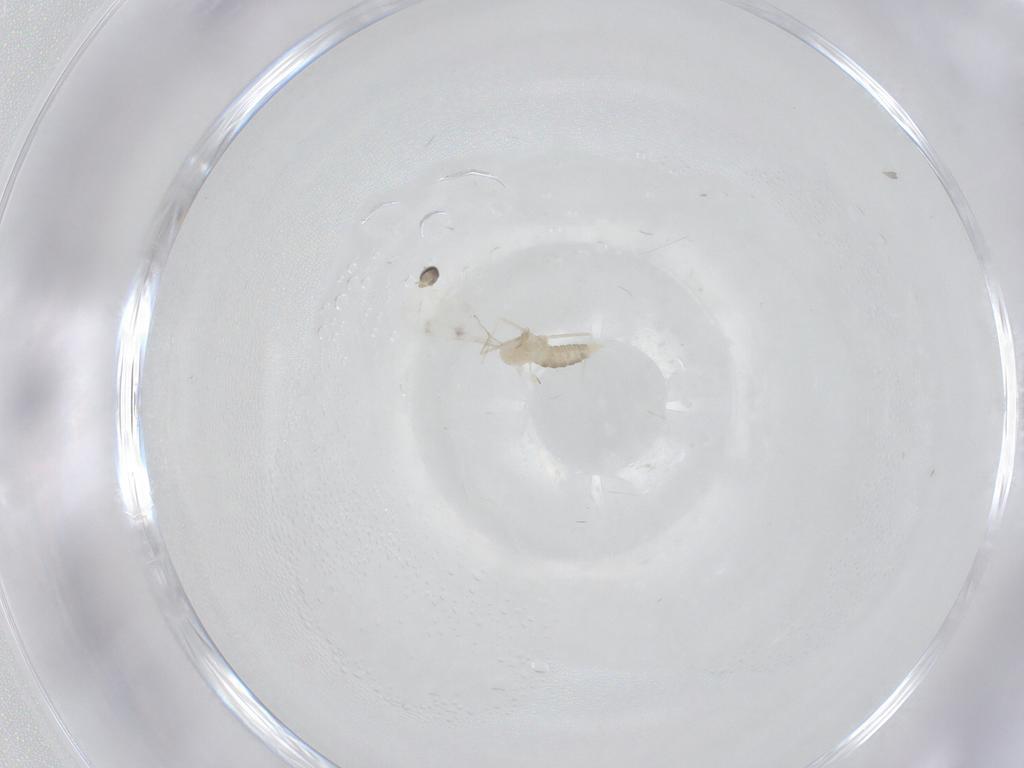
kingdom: Animalia
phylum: Arthropoda
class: Insecta
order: Diptera
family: Cecidomyiidae
